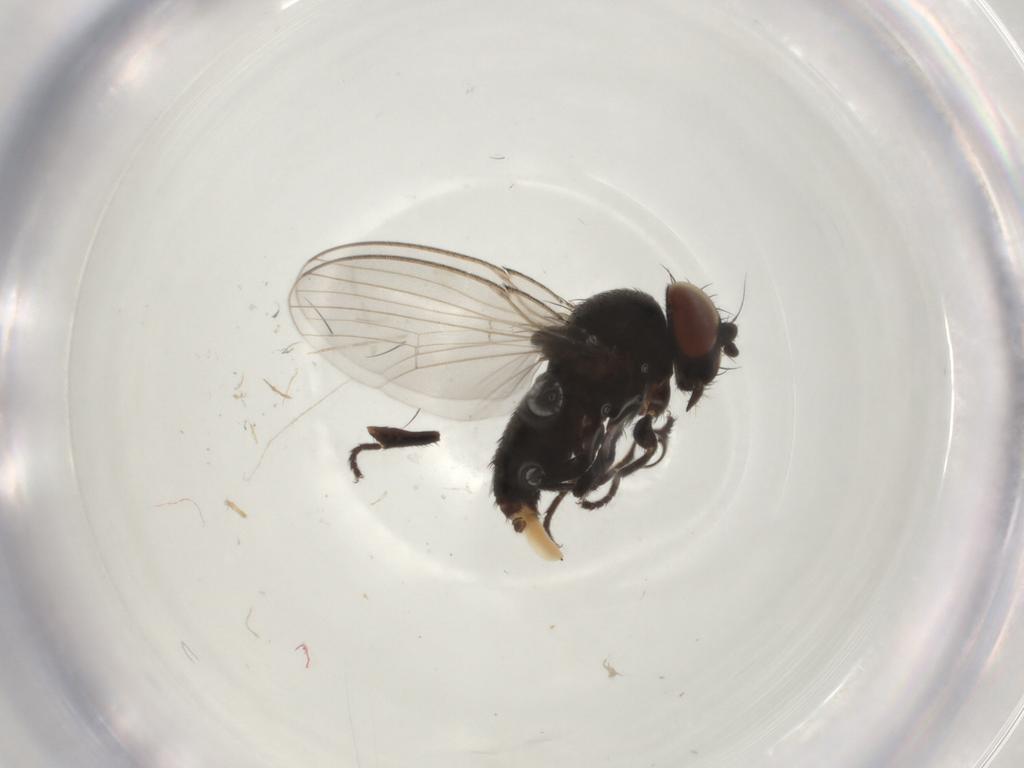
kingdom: Animalia
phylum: Arthropoda
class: Insecta
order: Diptera
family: Chloropidae
